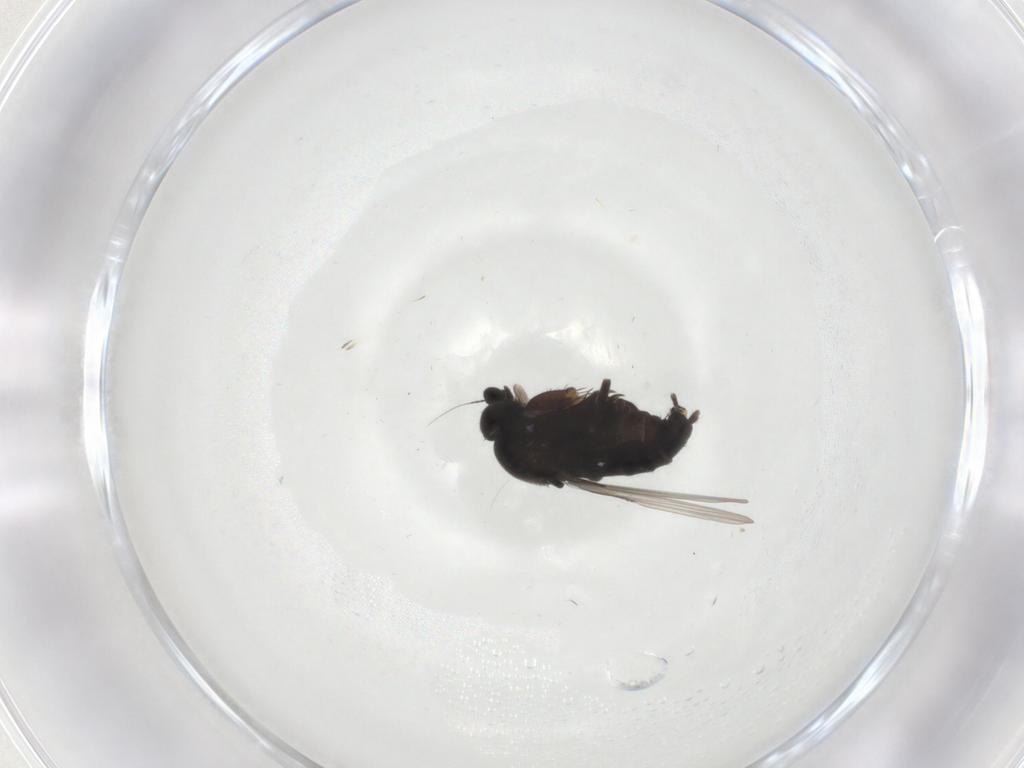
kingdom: Animalia
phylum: Arthropoda
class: Insecta
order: Diptera
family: Phoridae
